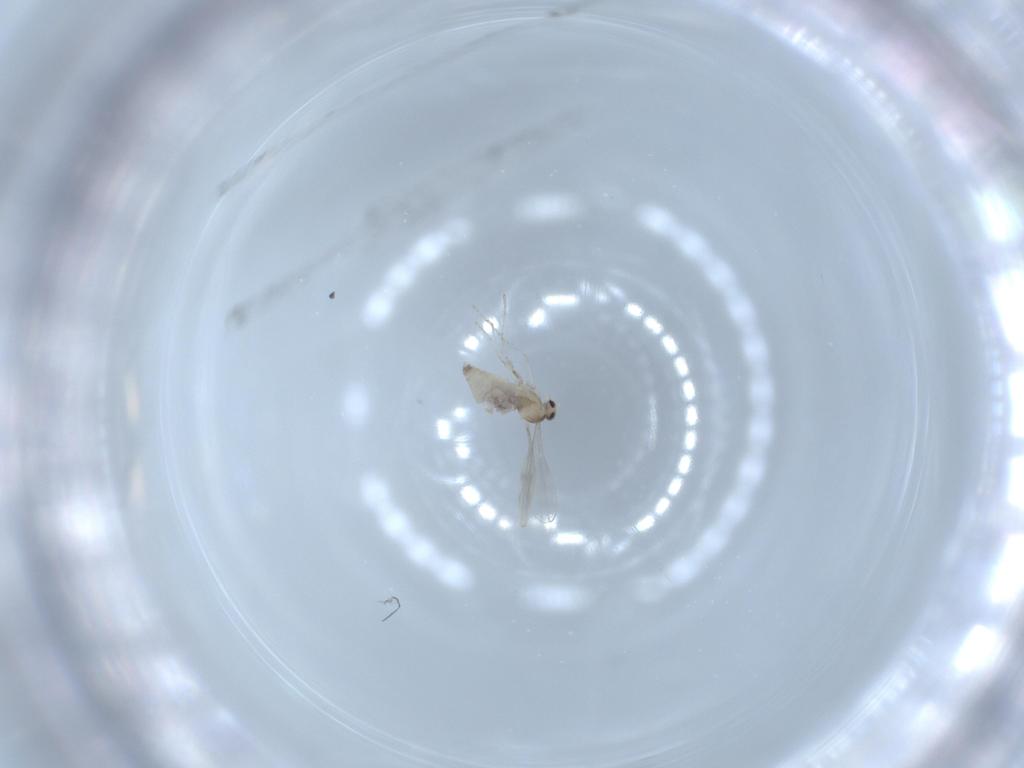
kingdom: Animalia
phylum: Arthropoda
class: Insecta
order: Diptera
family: Cecidomyiidae
